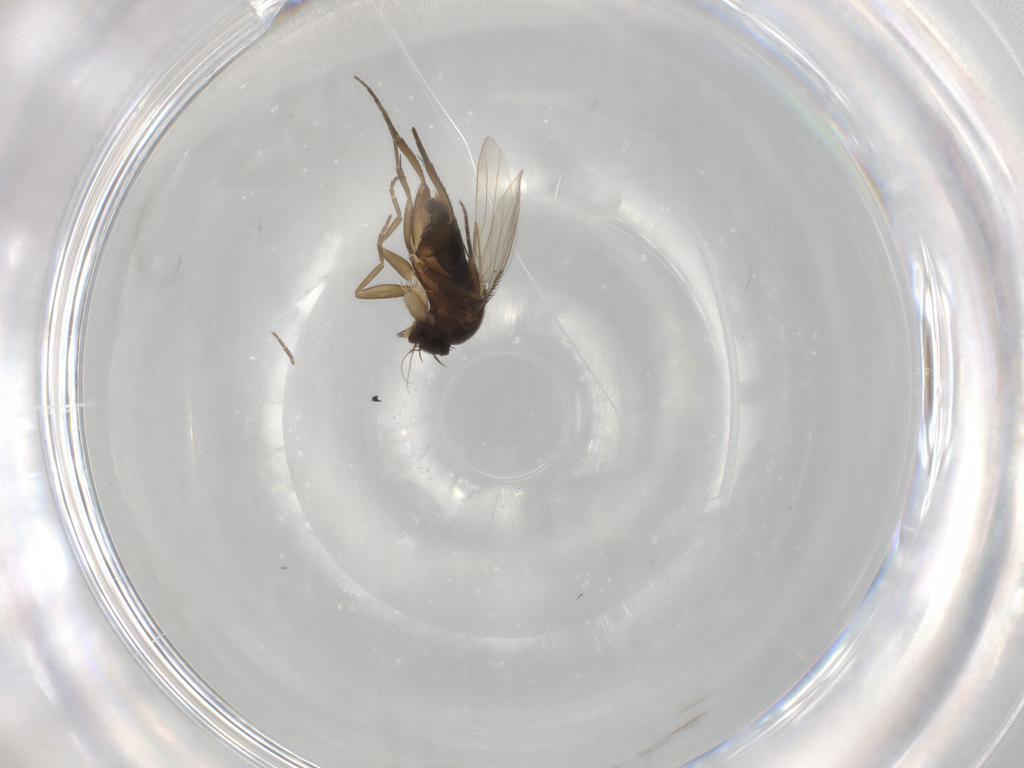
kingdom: Animalia
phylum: Arthropoda
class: Insecta
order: Diptera
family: Phoridae
